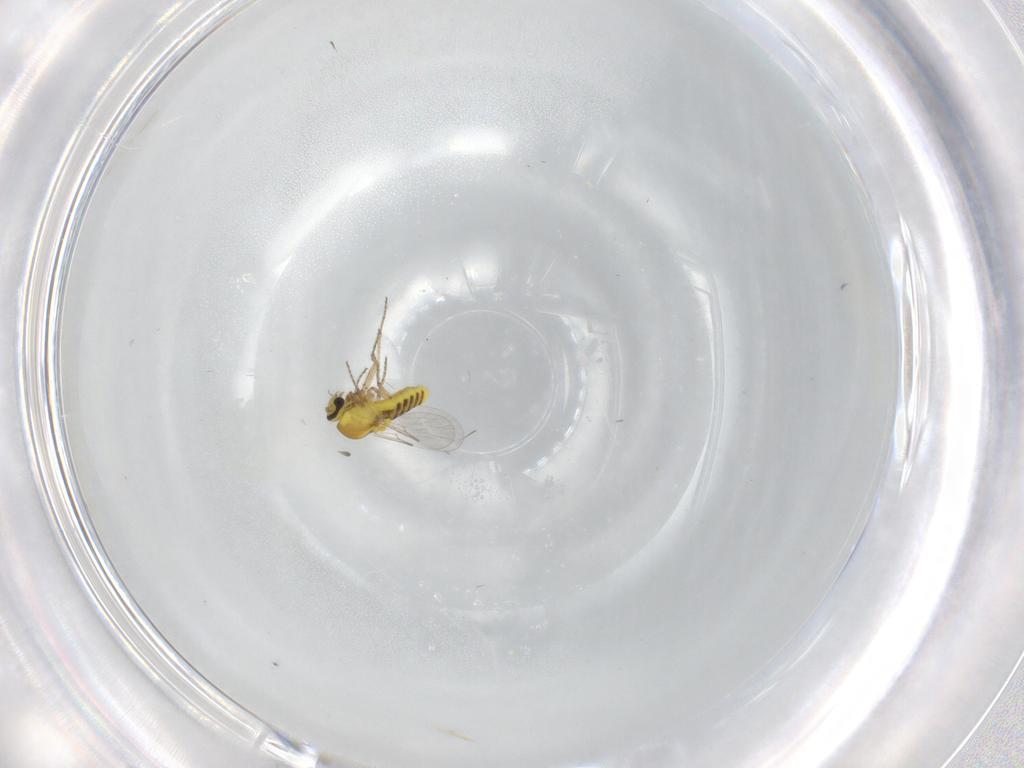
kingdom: Animalia
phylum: Arthropoda
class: Insecta
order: Diptera
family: Ceratopogonidae
